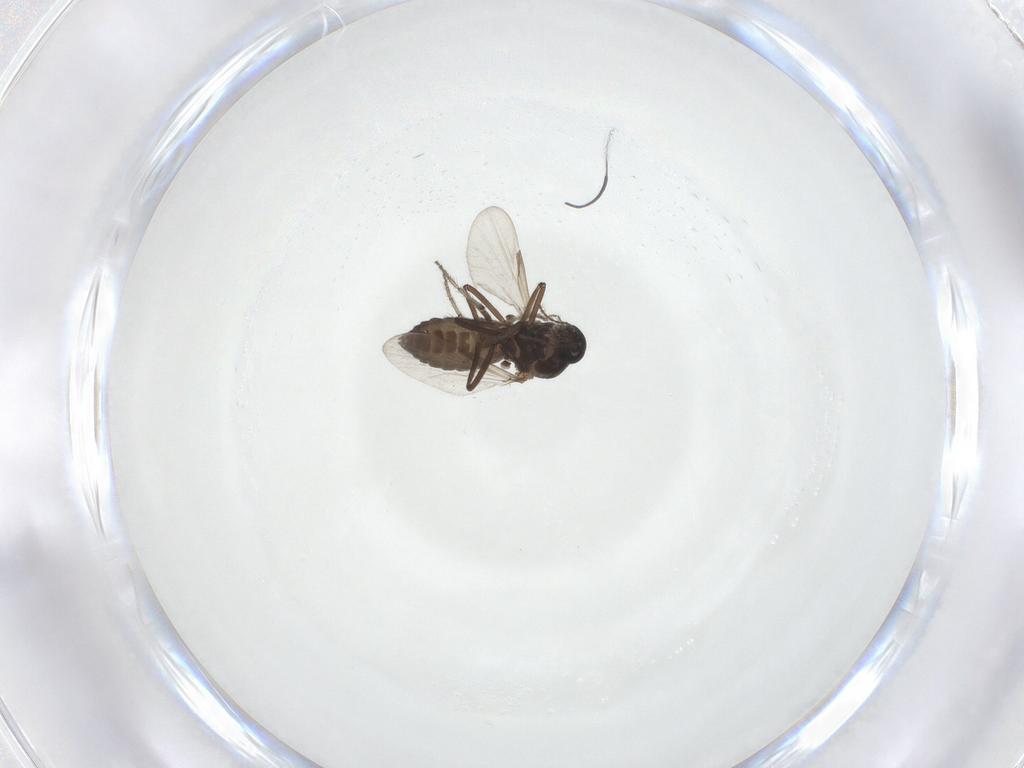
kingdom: Animalia
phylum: Arthropoda
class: Insecta
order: Diptera
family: Ceratopogonidae
